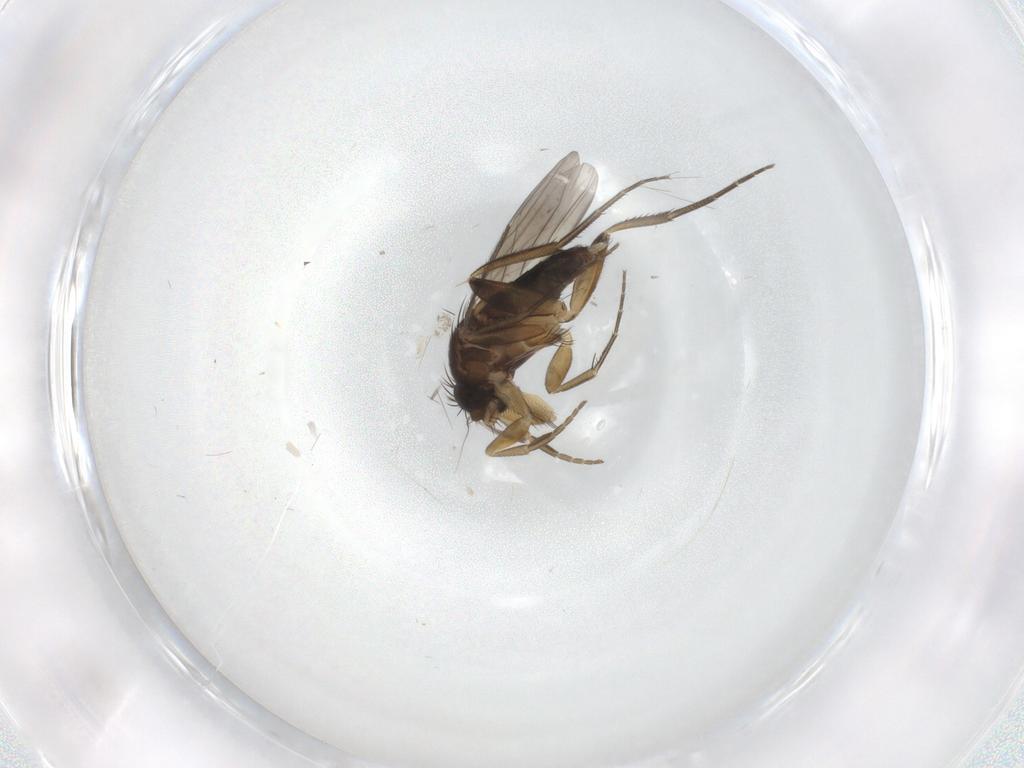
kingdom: Animalia
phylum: Arthropoda
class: Insecta
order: Diptera
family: Phoridae
